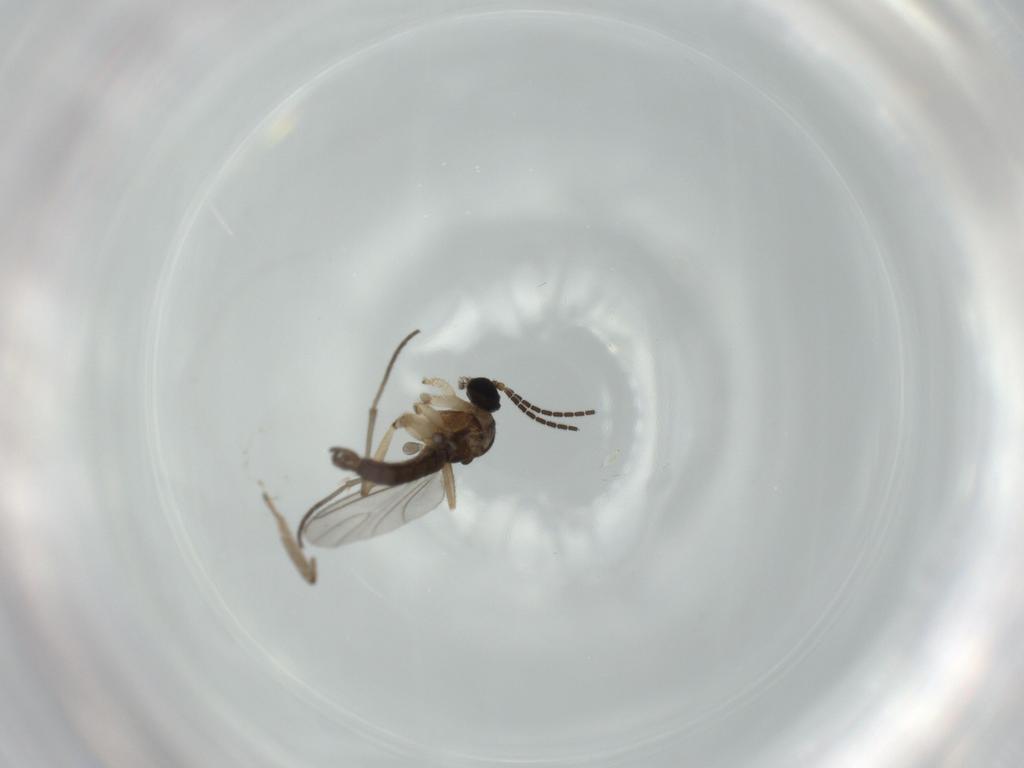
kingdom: Animalia
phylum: Arthropoda
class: Insecta
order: Diptera
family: Sciaridae
